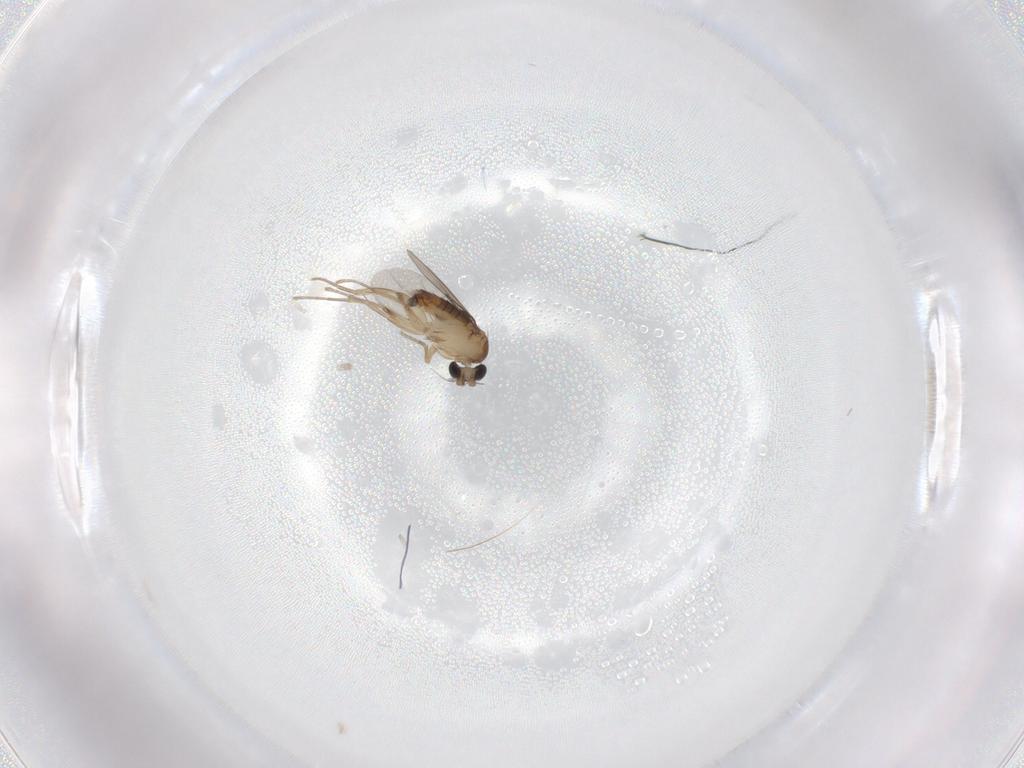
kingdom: Animalia
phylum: Arthropoda
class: Insecta
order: Diptera
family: Phoridae
